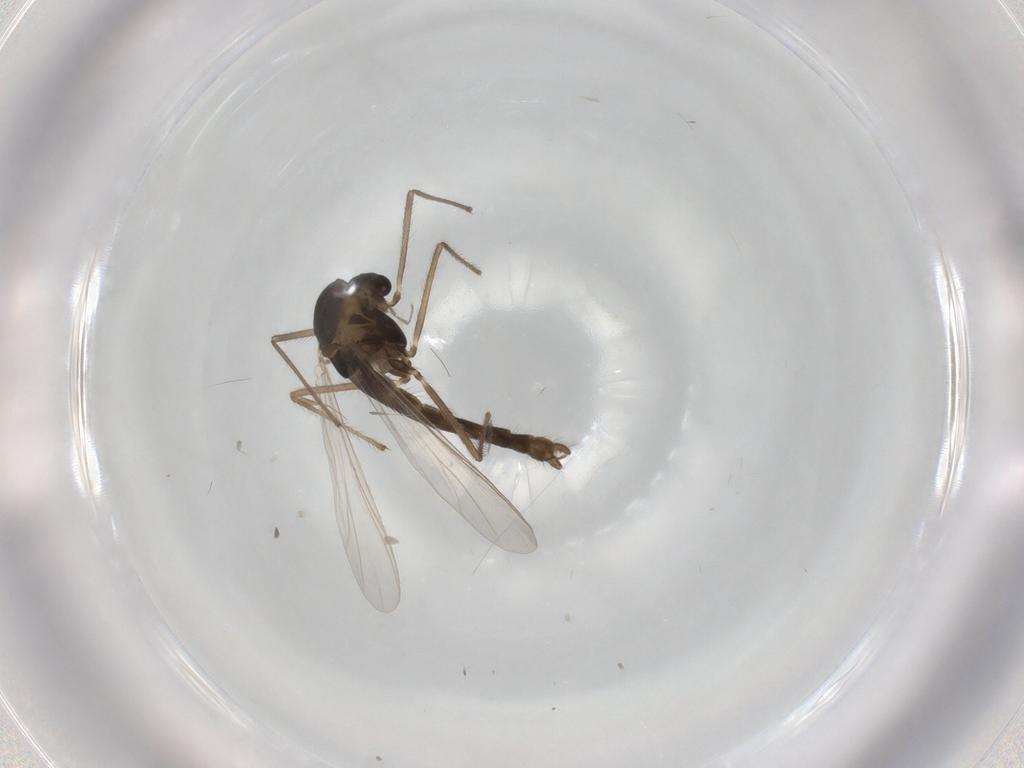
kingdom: Animalia
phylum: Arthropoda
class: Insecta
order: Diptera
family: Chironomidae
